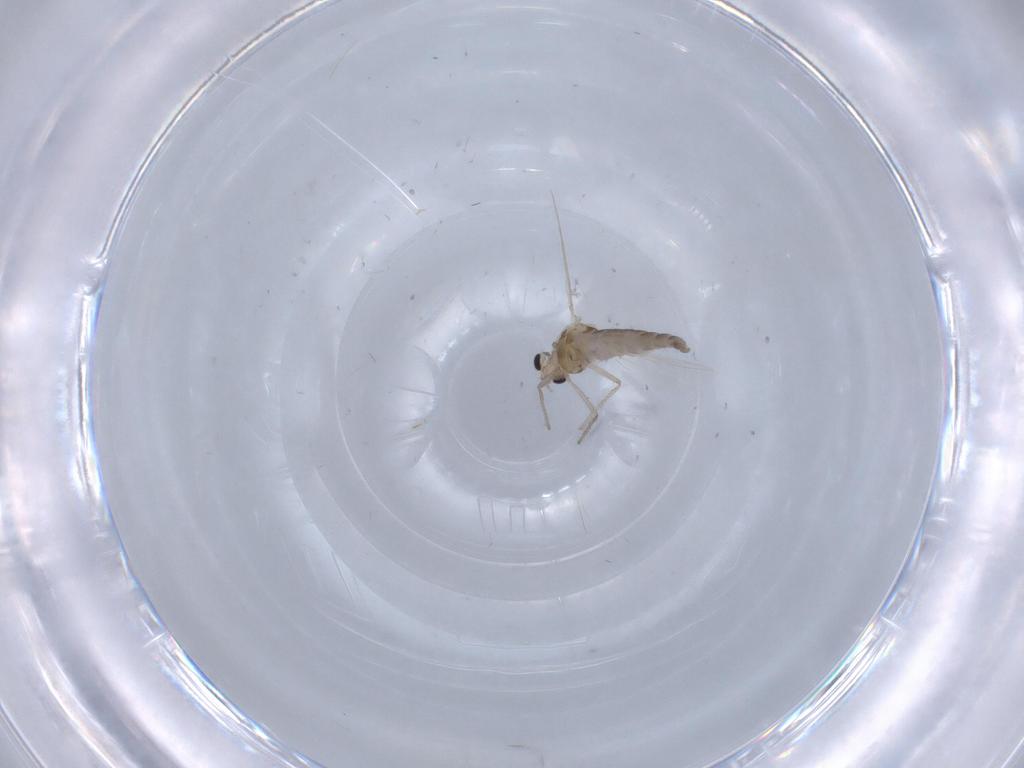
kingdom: Animalia
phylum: Arthropoda
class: Insecta
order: Diptera
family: Chironomidae
